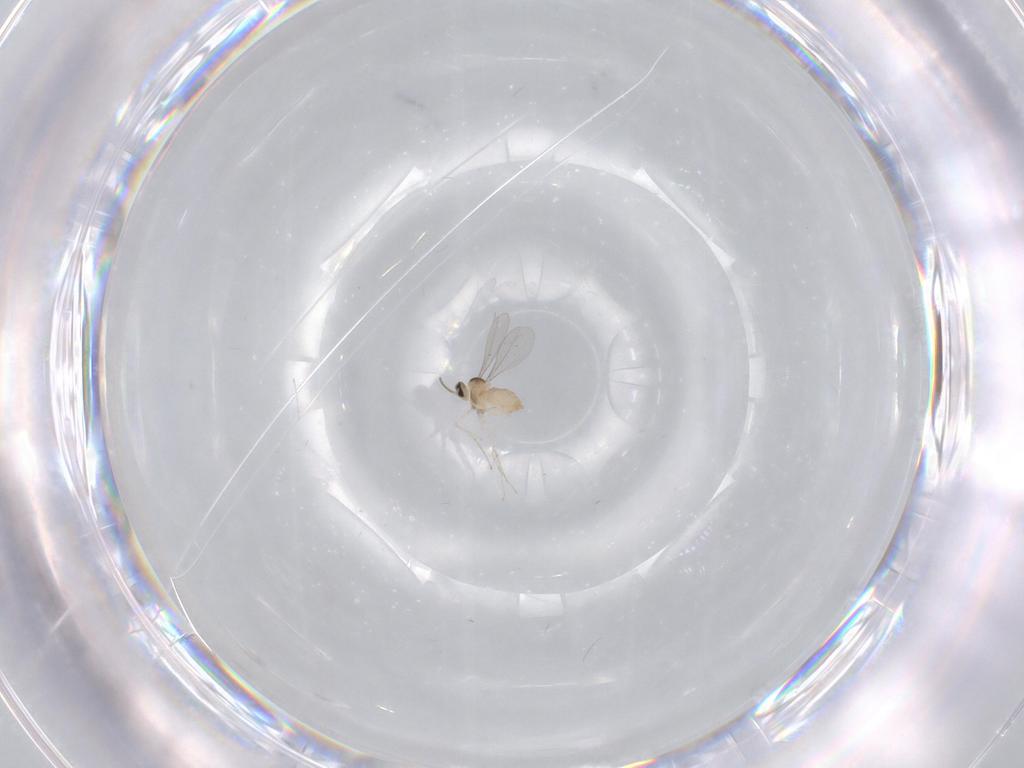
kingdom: Animalia
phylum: Arthropoda
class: Insecta
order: Diptera
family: Cecidomyiidae
